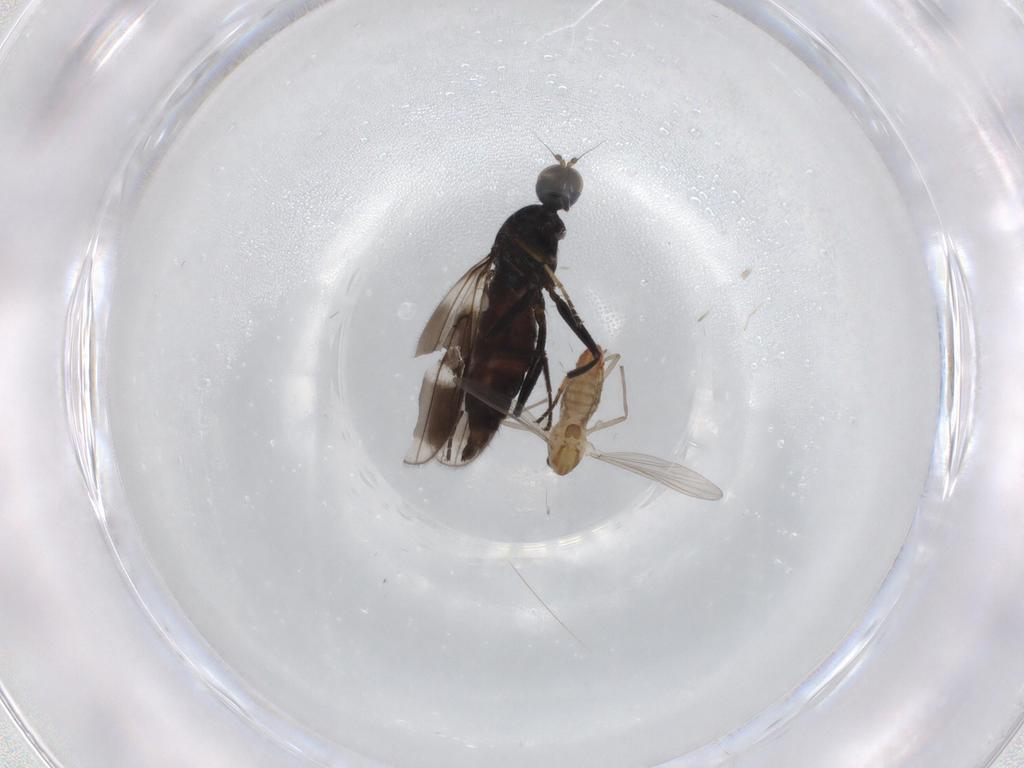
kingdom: Animalia
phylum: Arthropoda
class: Insecta
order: Diptera
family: Hybotidae
